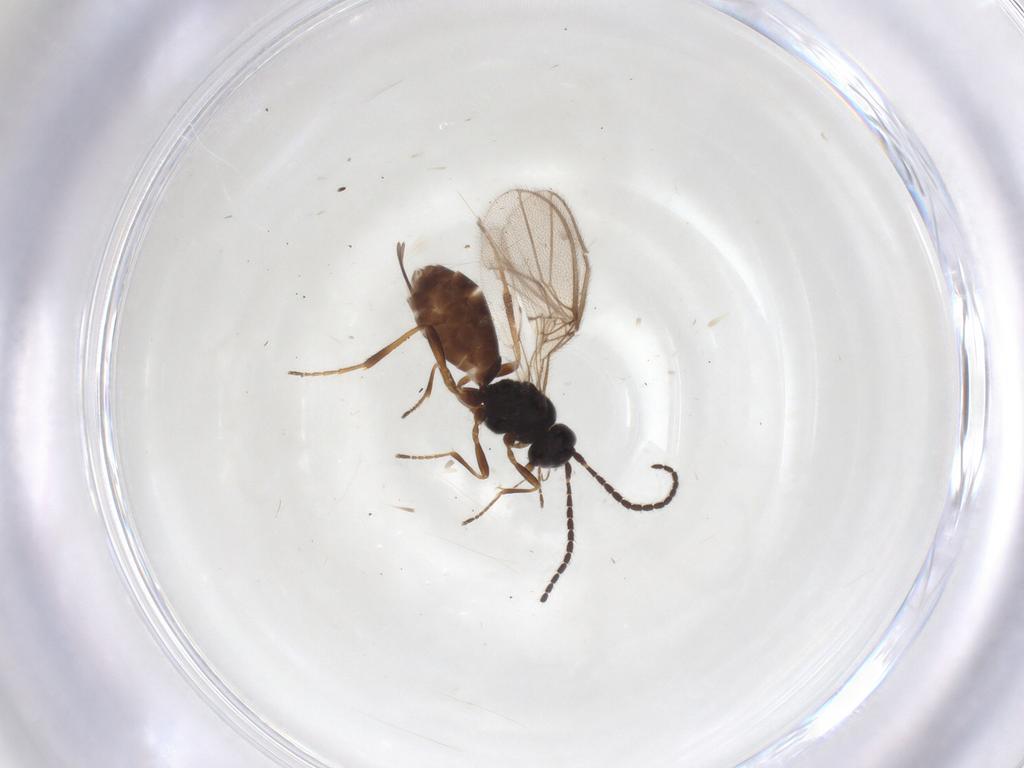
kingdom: Animalia
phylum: Arthropoda
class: Insecta
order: Hymenoptera
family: Braconidae
